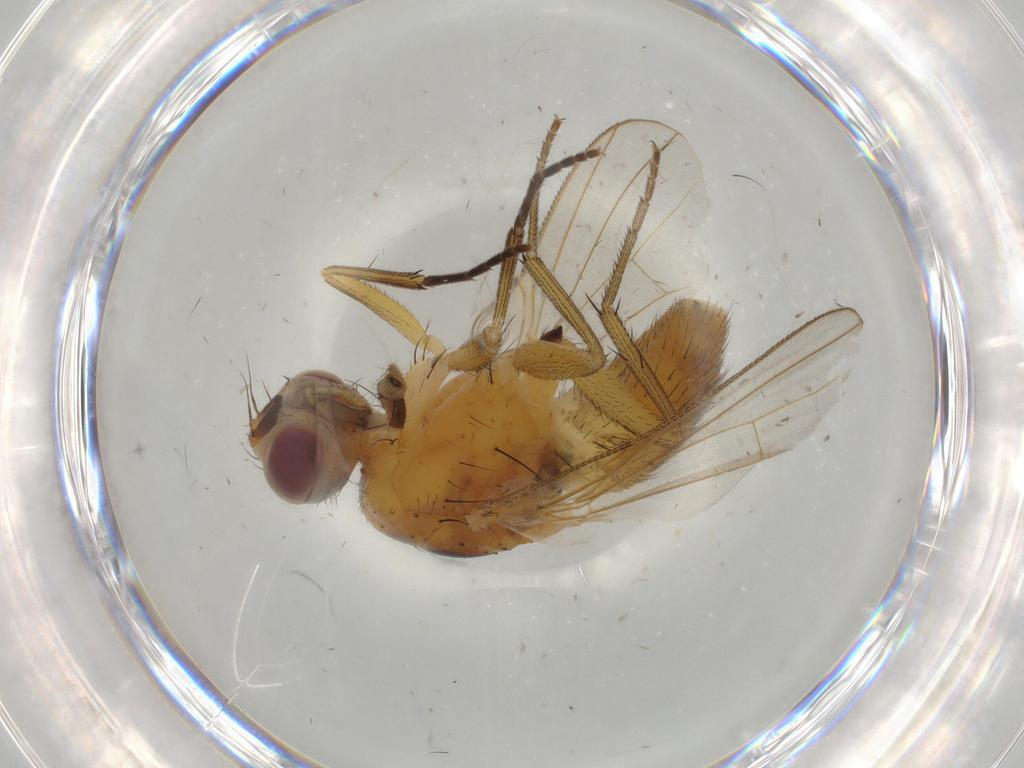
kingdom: Animalia
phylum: Arthropoda
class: Insecta
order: Diptera
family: Muscidae
